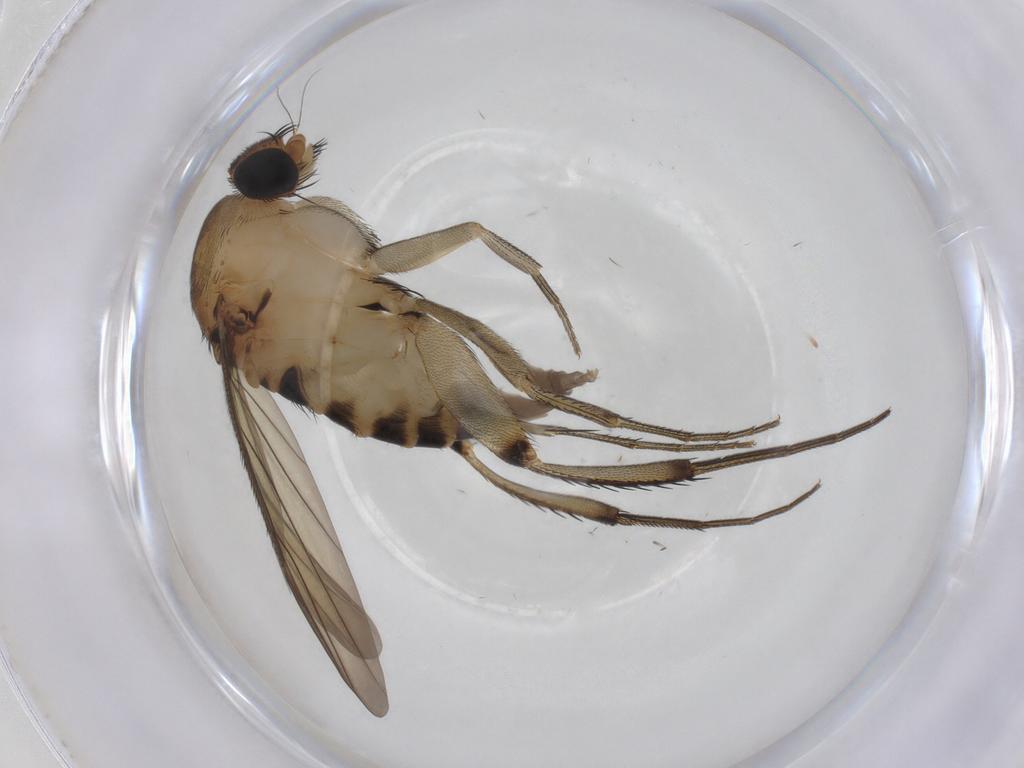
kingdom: Animalia
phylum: Arthropoda
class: Insecta
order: Diptera
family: Phoridae
